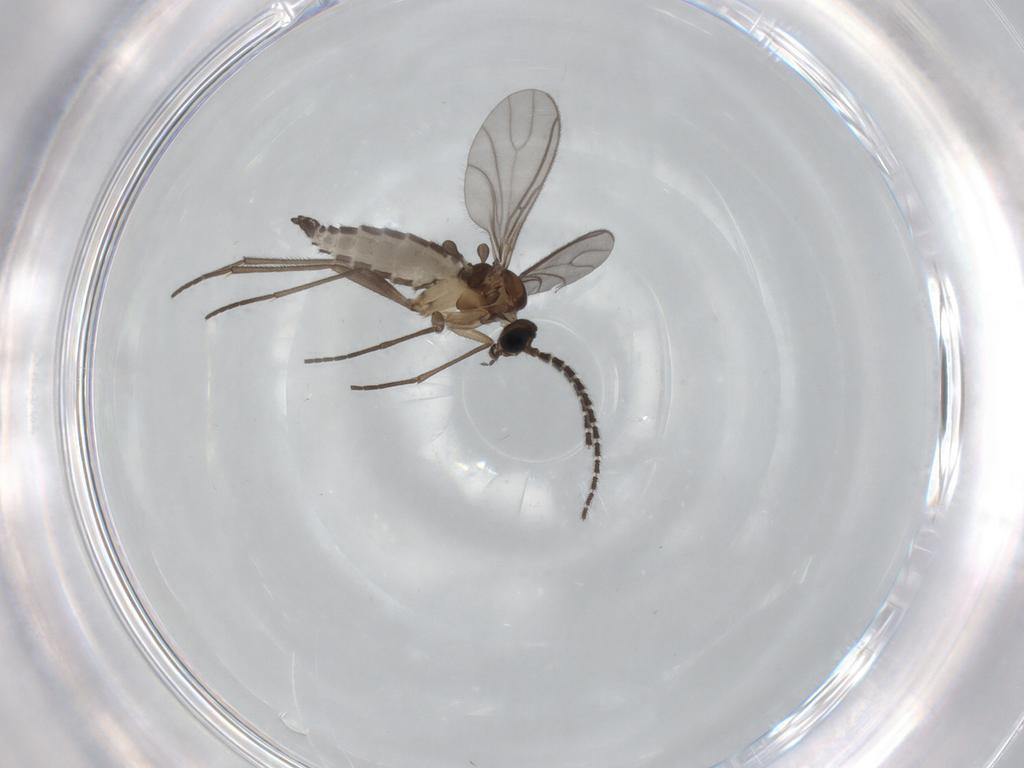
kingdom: Animalia
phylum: Arthropoda
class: Insecta
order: Diptera
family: Sciaridae
